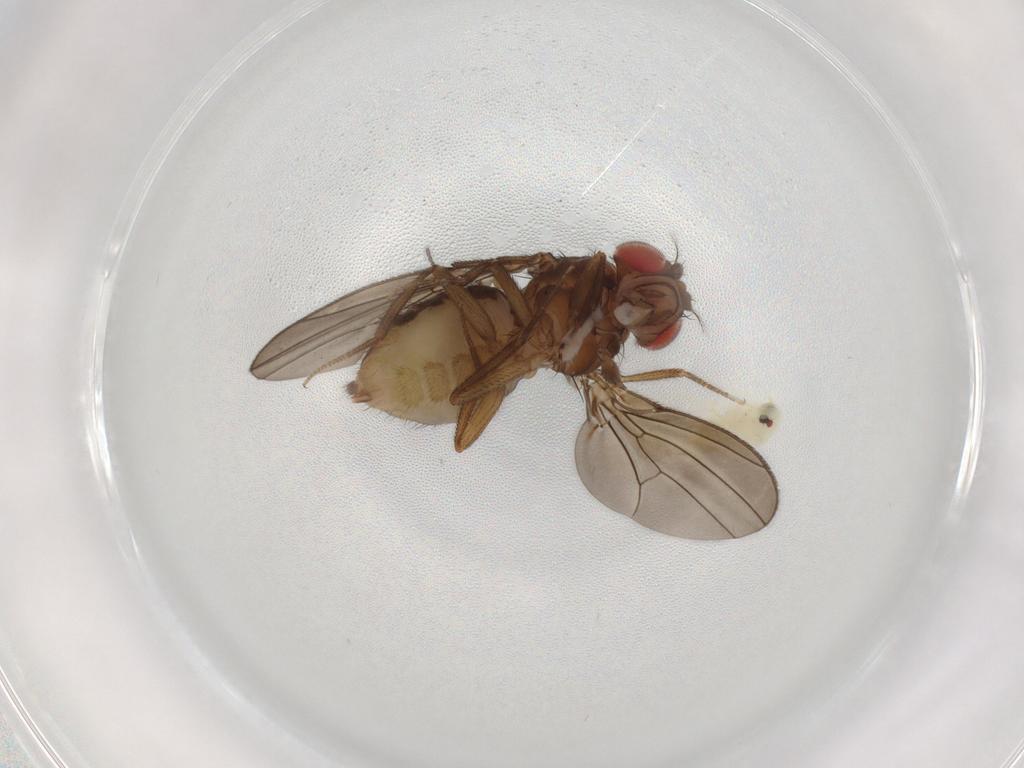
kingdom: Animalia
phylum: Arthropoda
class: Insecta
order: Diptera
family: Drosophilidae
